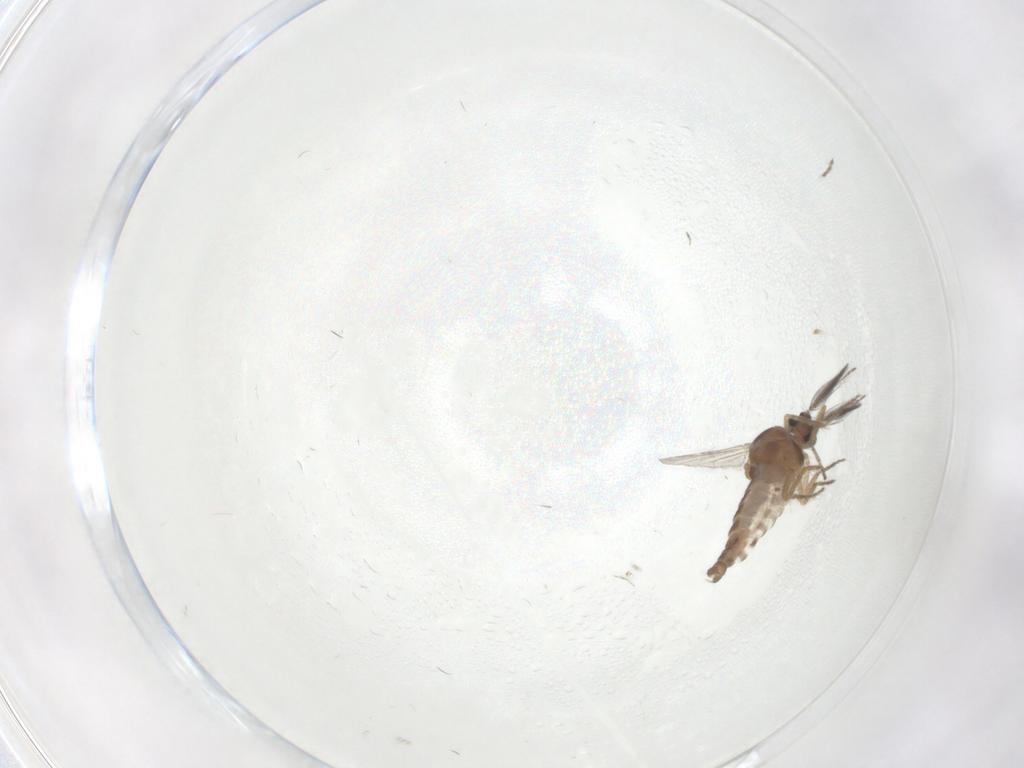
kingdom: Animalia
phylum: Arthropoda
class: Insecta
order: Diptera
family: Ceratopogonidae
